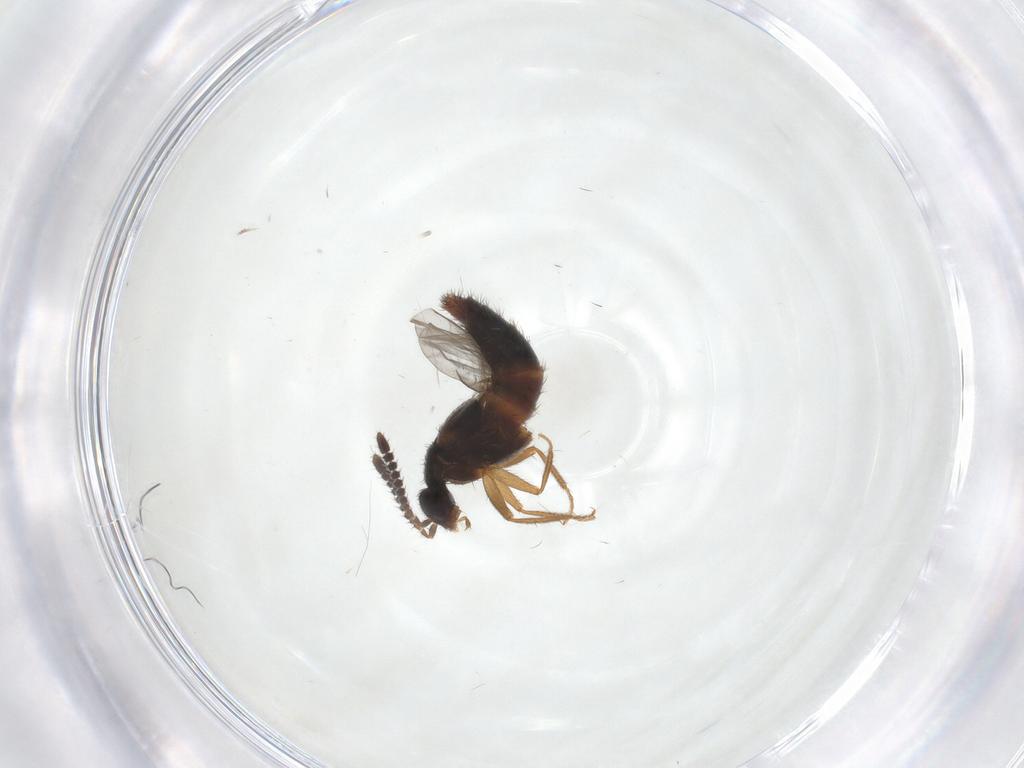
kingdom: Animalia
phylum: Arthropoda
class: Insecta
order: Coleoptera
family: Staphylinidae
